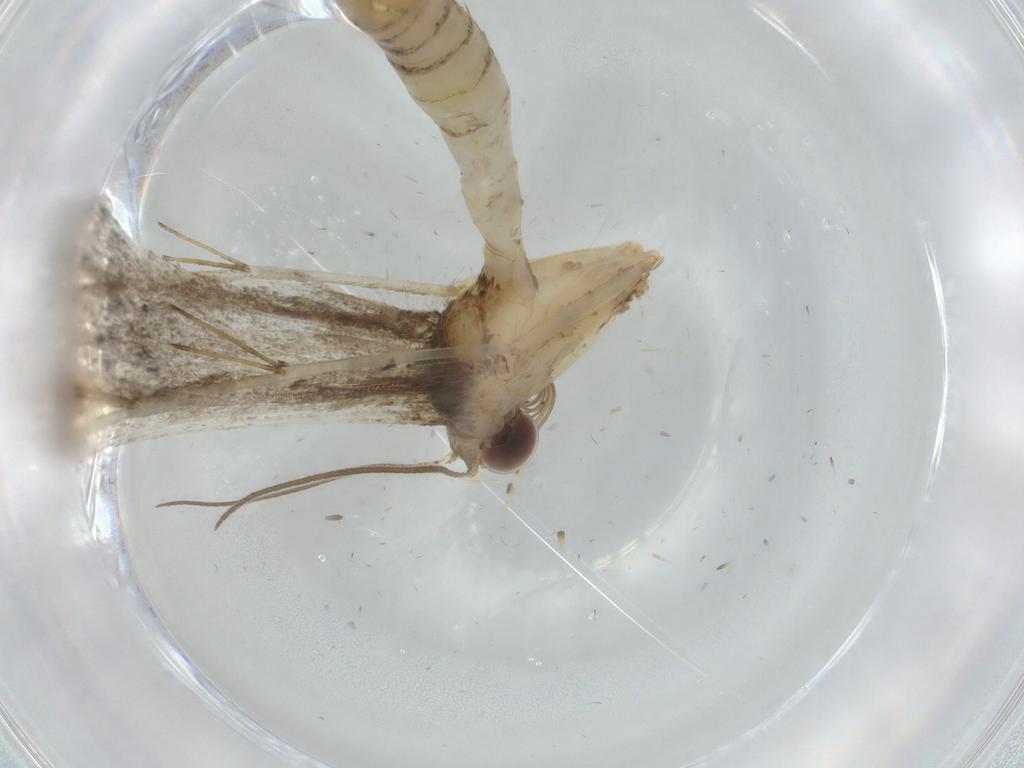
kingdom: Animalia
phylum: Arthropoda
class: Insecta
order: Lepidoptera
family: Pterophoridae
